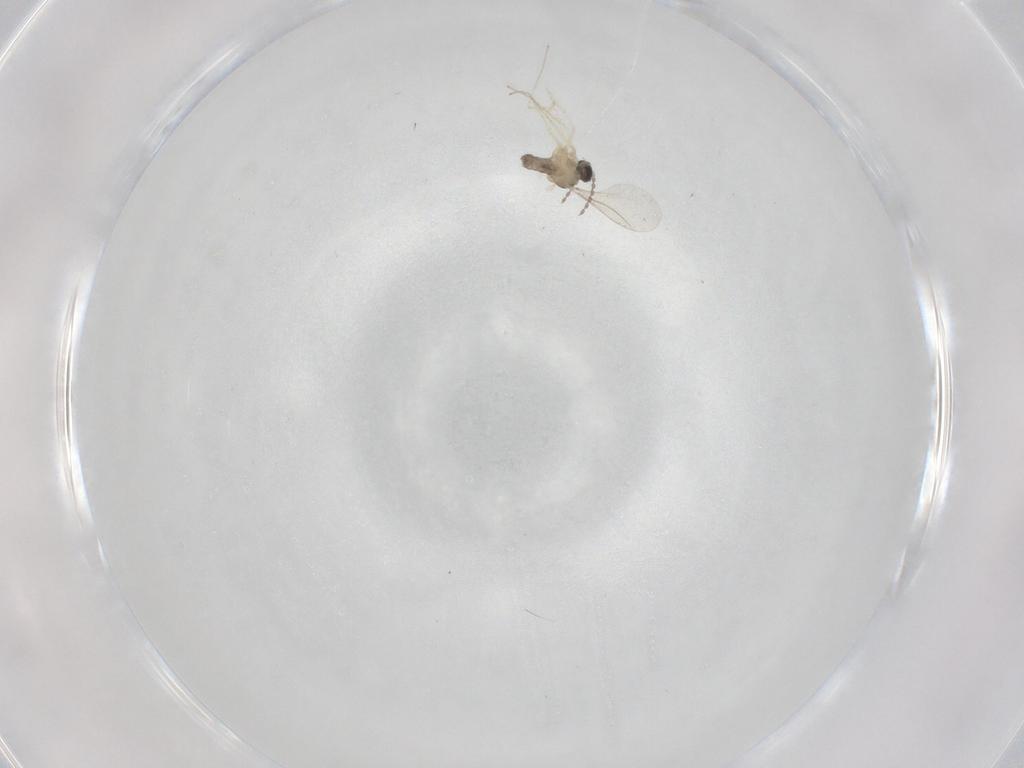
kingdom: Animalia
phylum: Arthropoda
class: Insecta
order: Diptera
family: Cecidomyiidae
